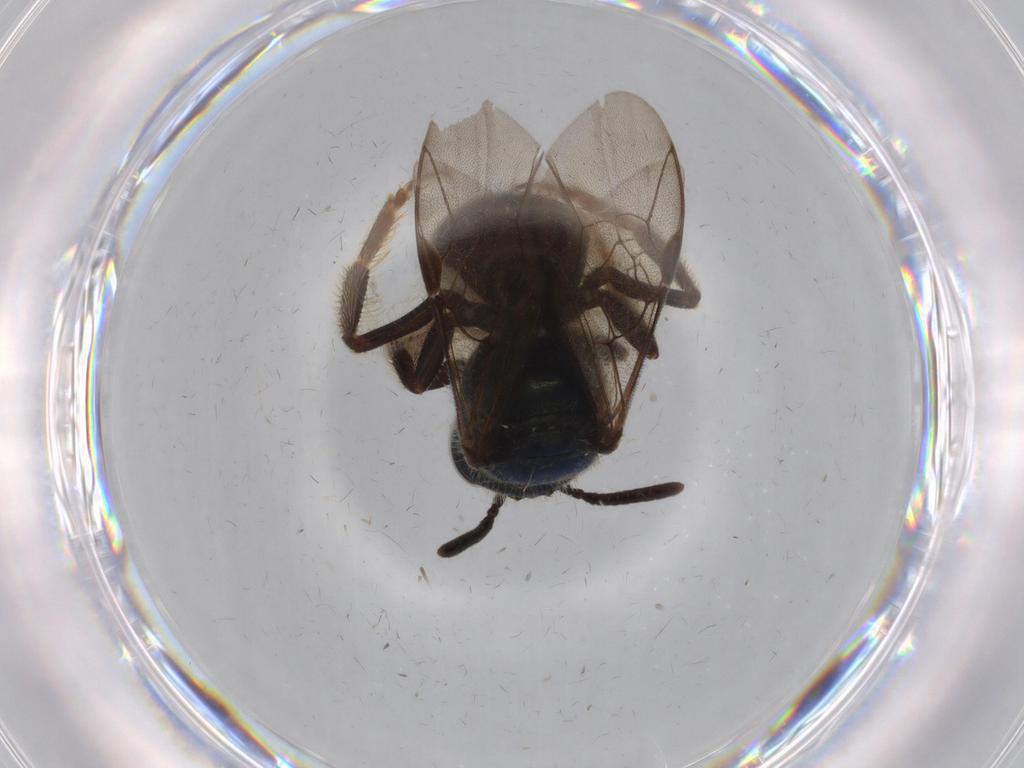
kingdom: Animalia
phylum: Arthropoda
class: Insecta
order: Hymenoptera
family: Halictidae
